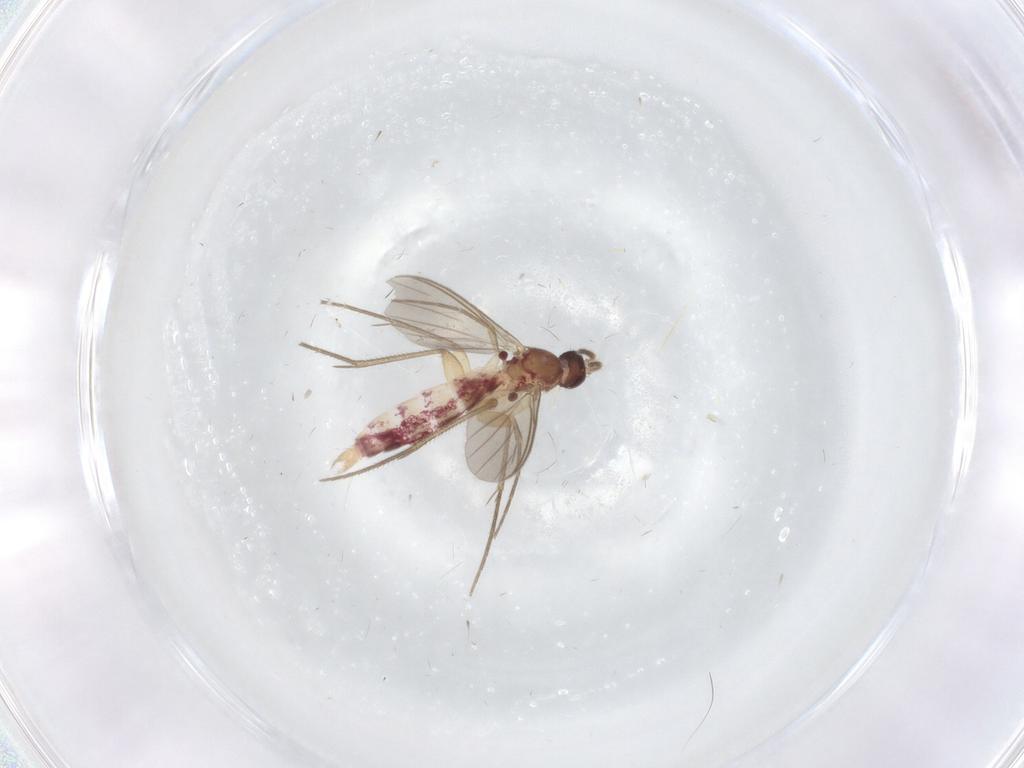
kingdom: Animalia
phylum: Arthropoda
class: Insecta
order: Diptera
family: Mycetophilidae
